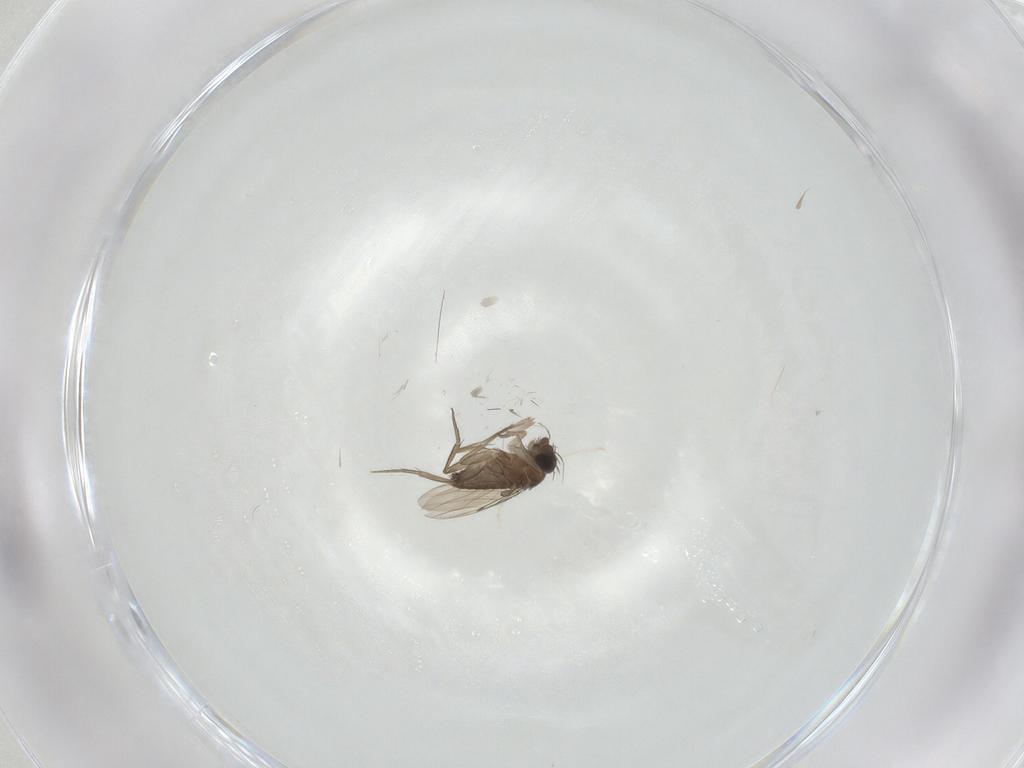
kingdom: Animalia
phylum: Arthropoda
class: Insecta
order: Diptera
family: Phoridae
